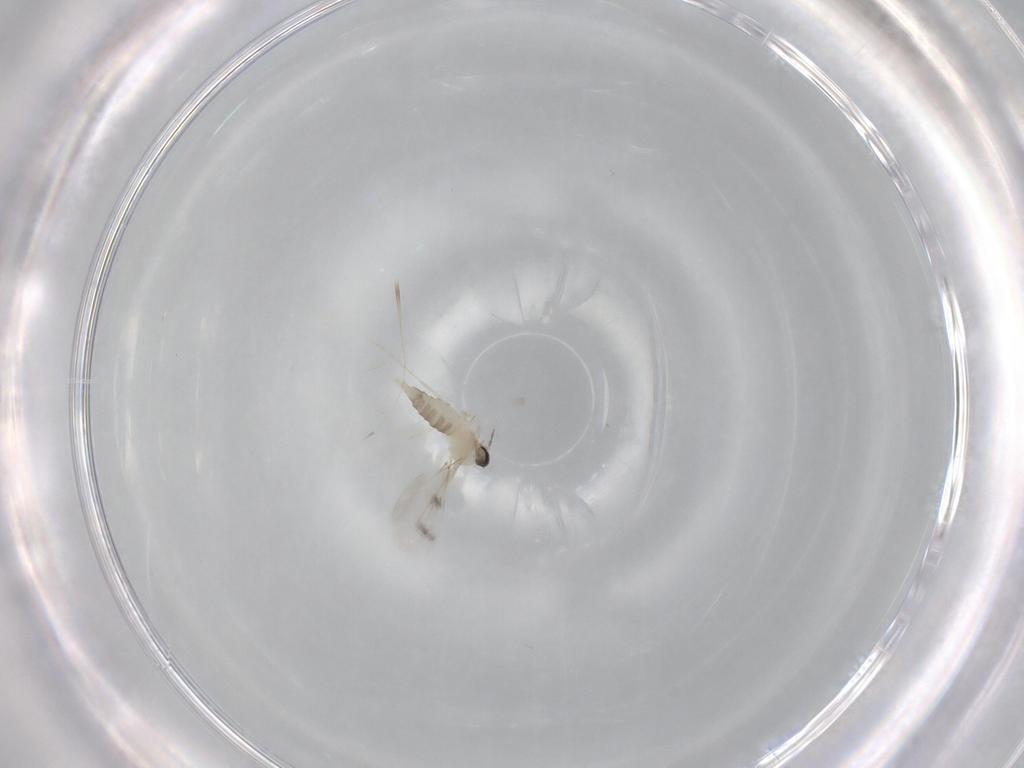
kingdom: Animalia
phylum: Arthropoda
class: Insecta
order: Diptera
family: Cecidomyiidae
